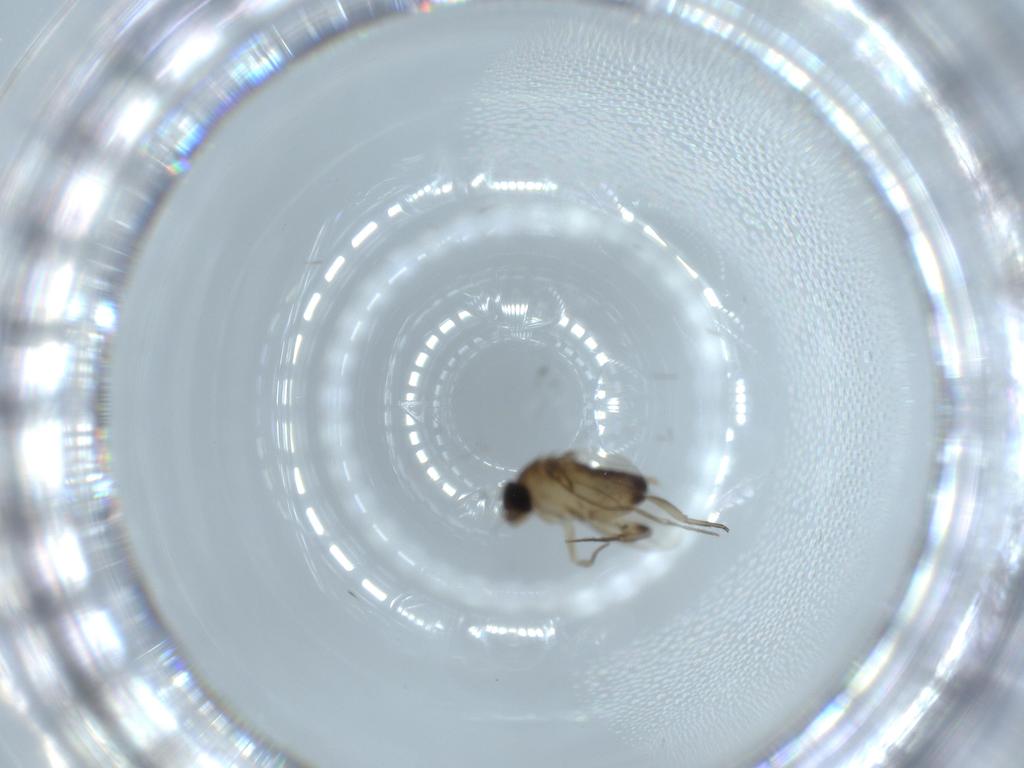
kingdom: Animalia
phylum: Arthropoda
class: Insecta
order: Diptera
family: Phoridae
